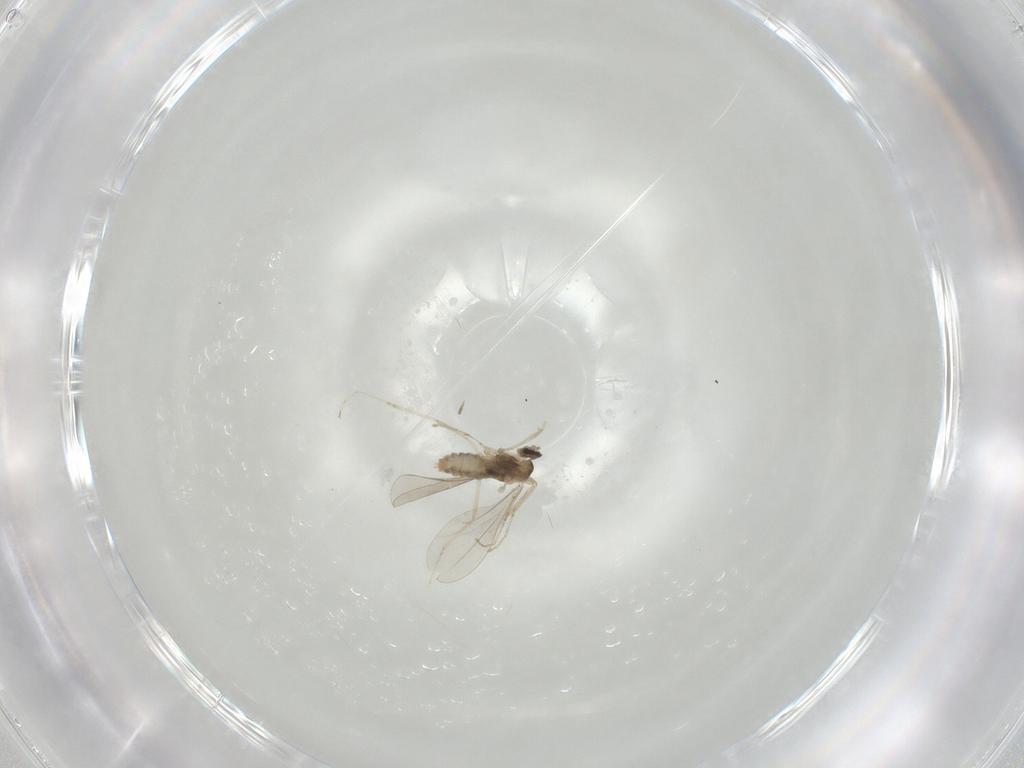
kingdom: Animalia
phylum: Arthropoda
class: Insecta
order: Diptera
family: Cecidomyiidae
